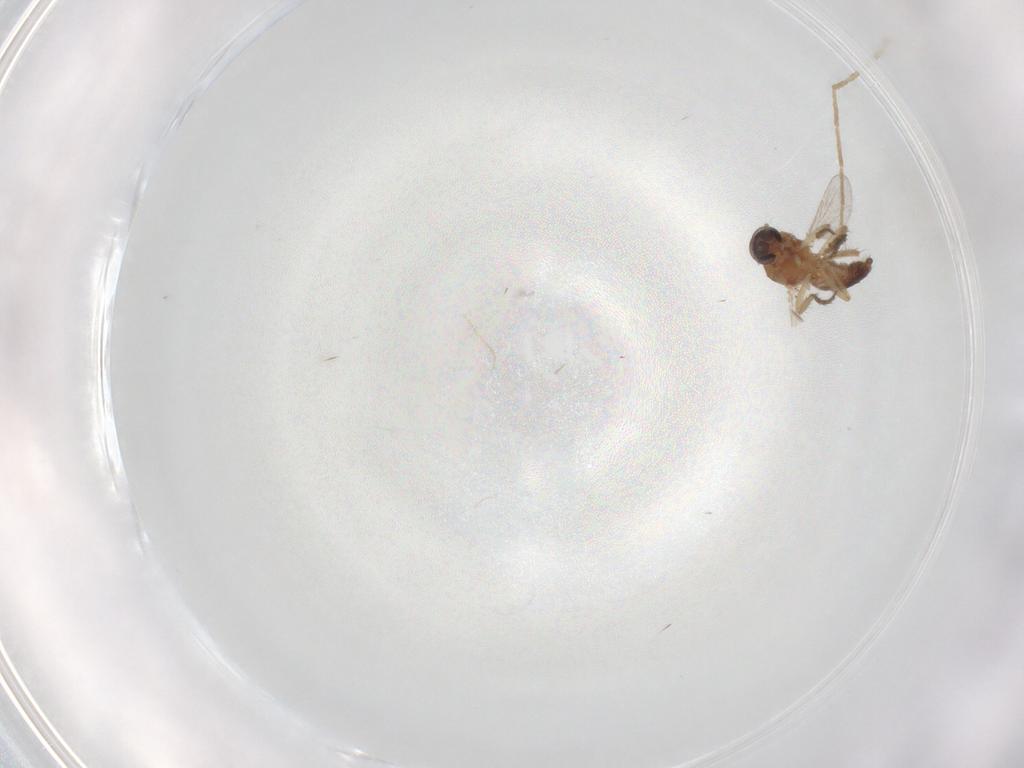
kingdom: Animalia
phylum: Arthropoda
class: Insecta
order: Diptera
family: Ceratopogonidae
